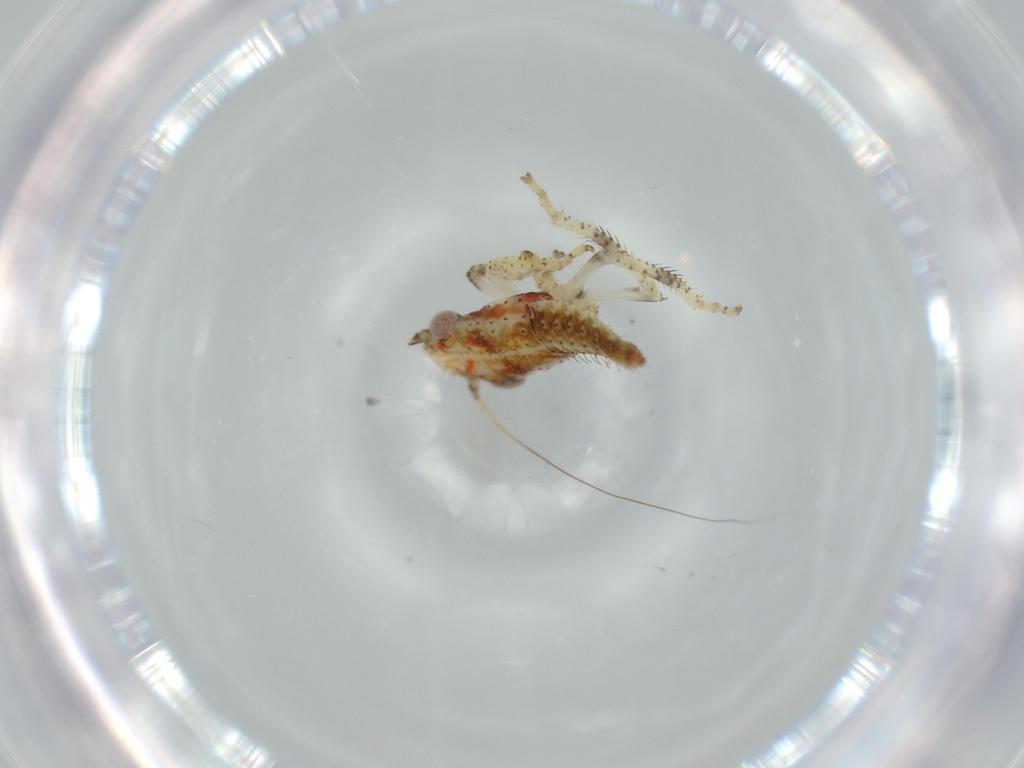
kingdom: Animalia
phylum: Arthropoda
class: Insecta
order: Hemiptera
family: Cicadellidae
